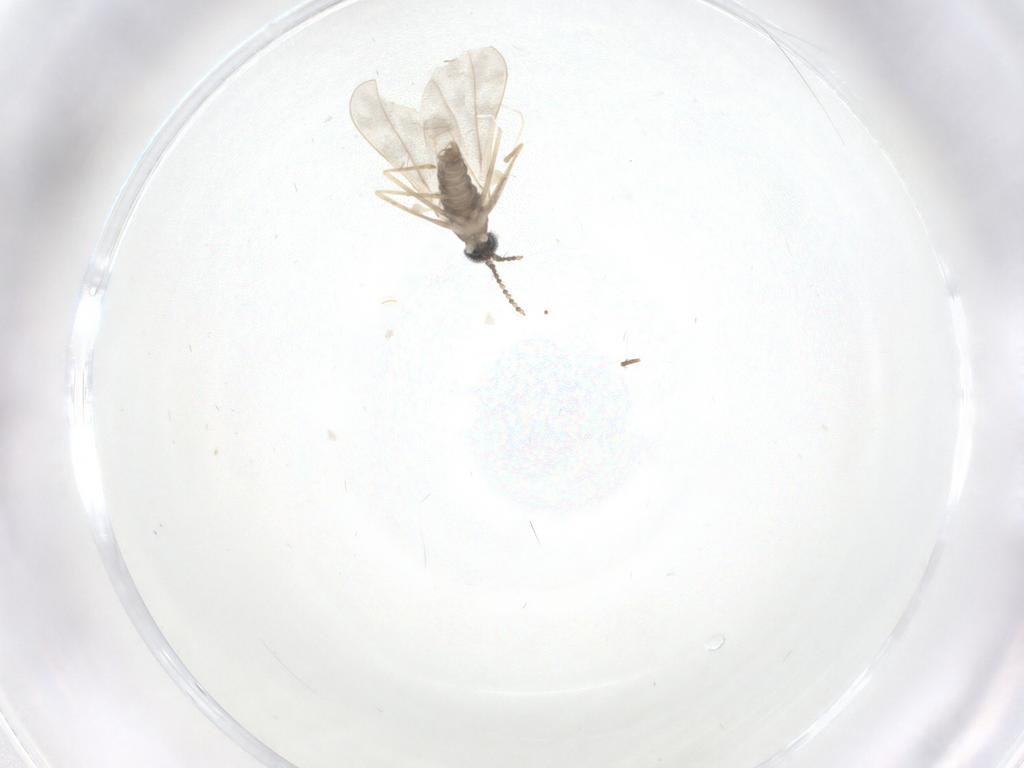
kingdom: Animalia
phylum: Arthropoda
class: Insecta
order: Diptera
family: Cecidomyiidae
